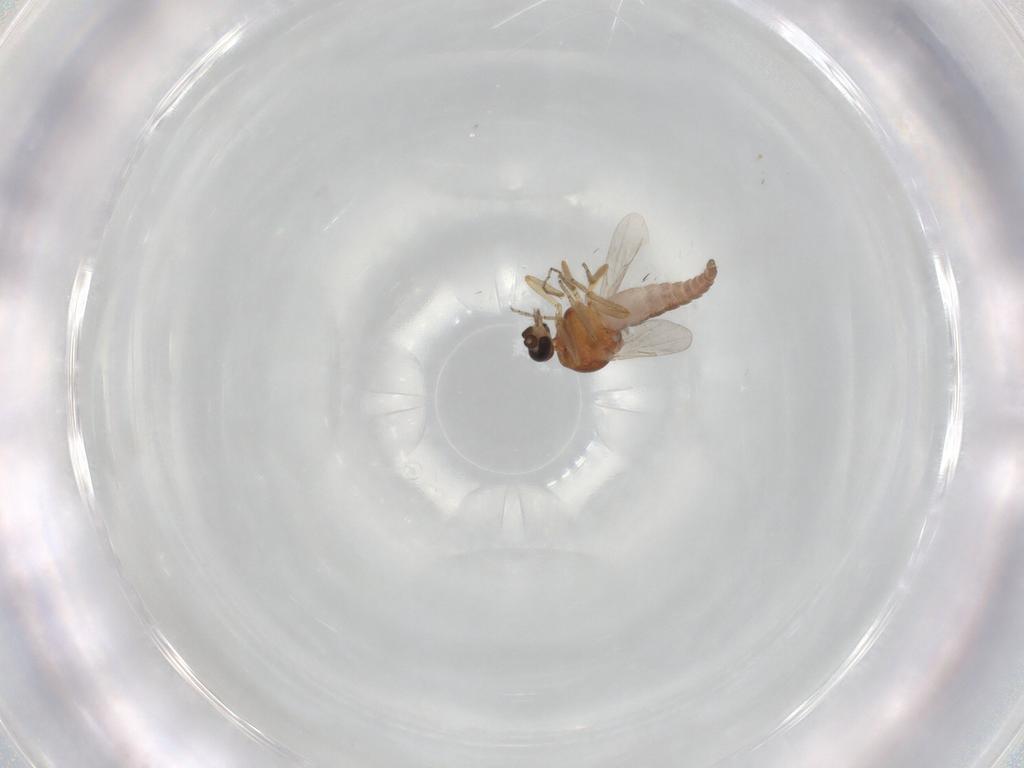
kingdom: Animalia
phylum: Arthropoda
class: Insecta
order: Diptera
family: Ceratopogonidae
